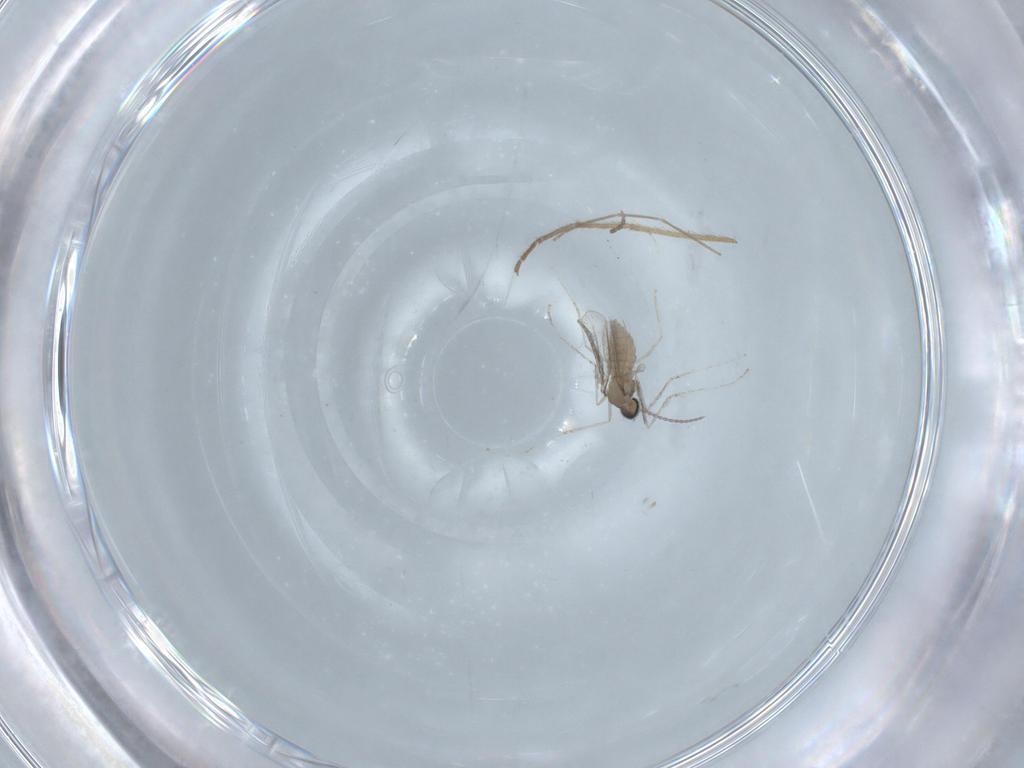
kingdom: Animalia
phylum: Arthropoda
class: Insecta
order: Diptera
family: Chironomidae
